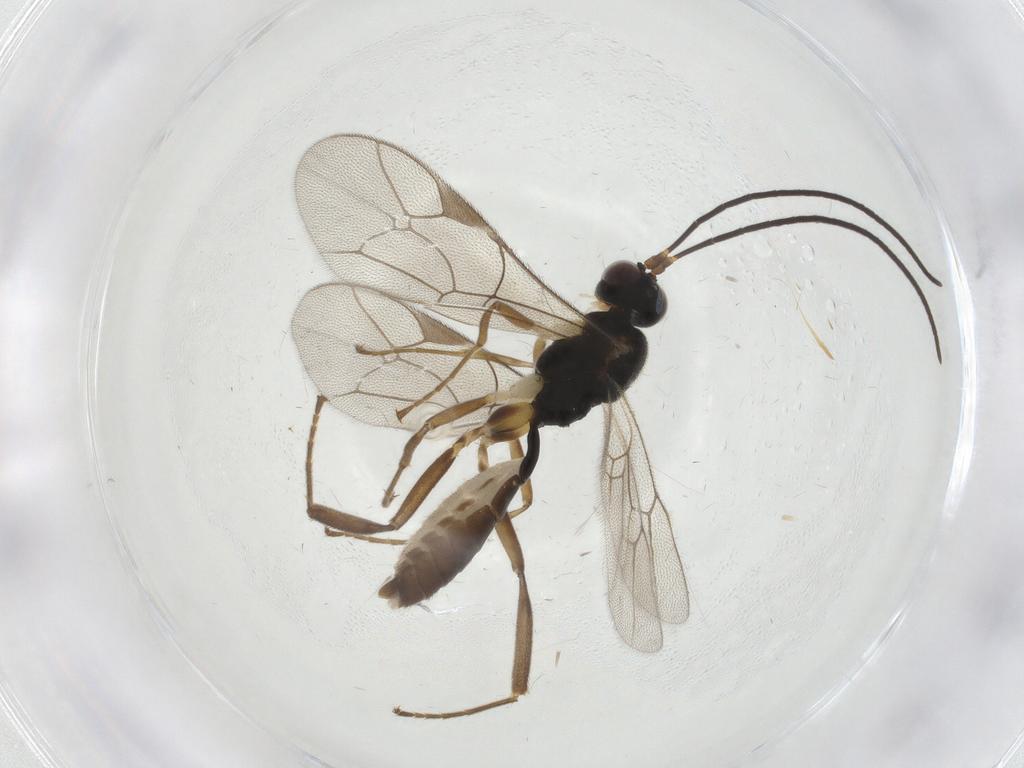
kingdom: Animalia
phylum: Arthropoda
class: Insecta
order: Hymenoptera
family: Ichneumonidae
